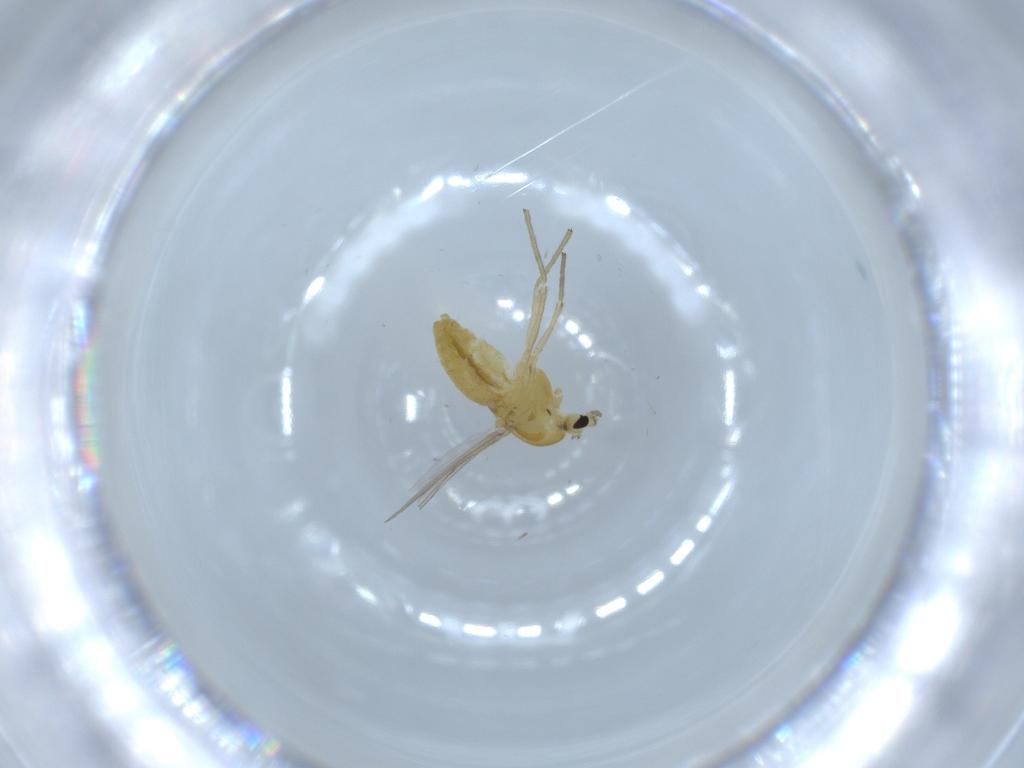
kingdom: Animalia
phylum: Arthropoda
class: Insecta
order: Diptera
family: Chironomidae
